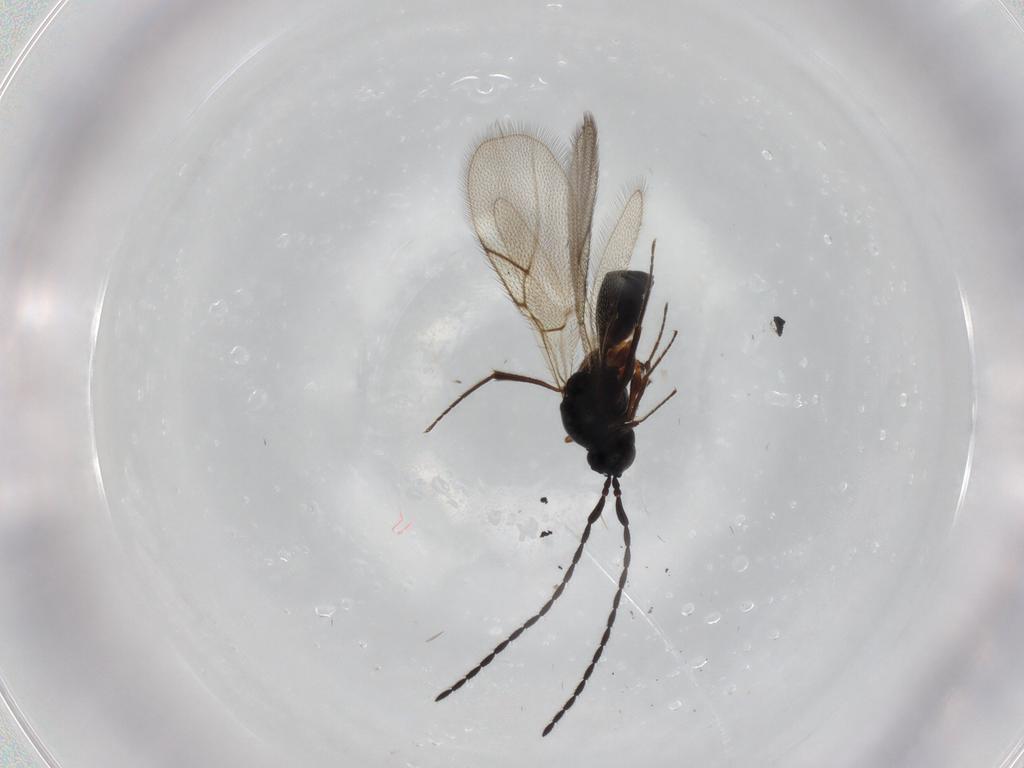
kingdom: Animalia
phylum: Arthropoda
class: Insecta
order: Hymenoptera
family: Figitidae
